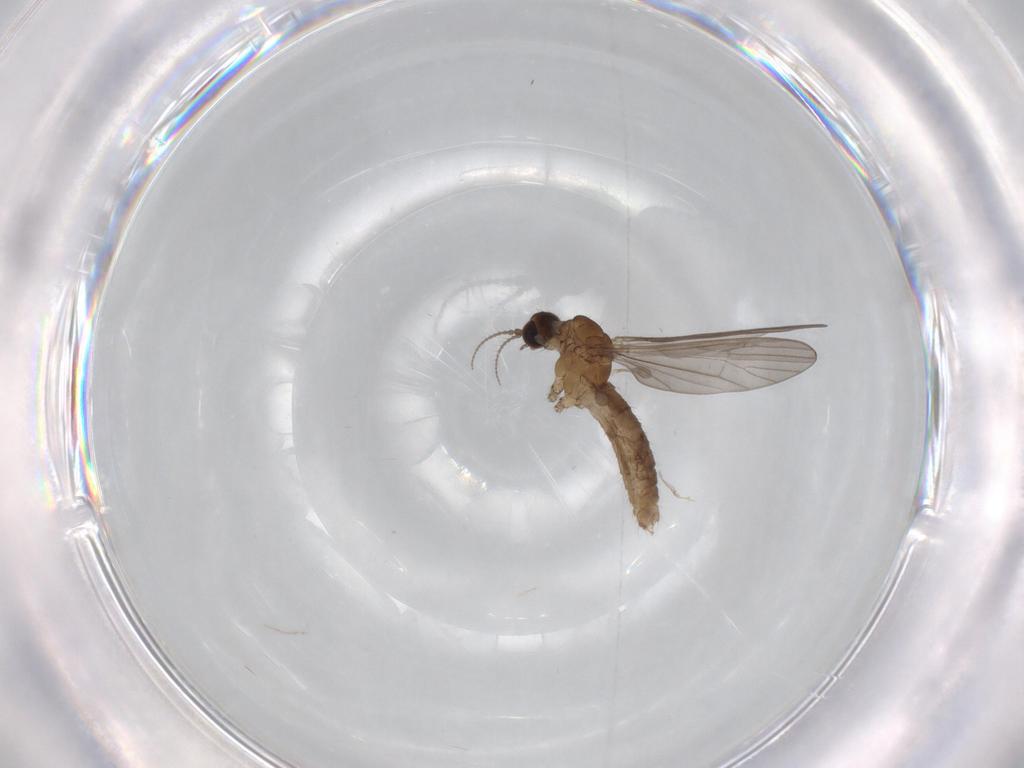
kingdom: Animalia
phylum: Arthropoda
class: Insecta
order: Diptera
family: Limoniidae
